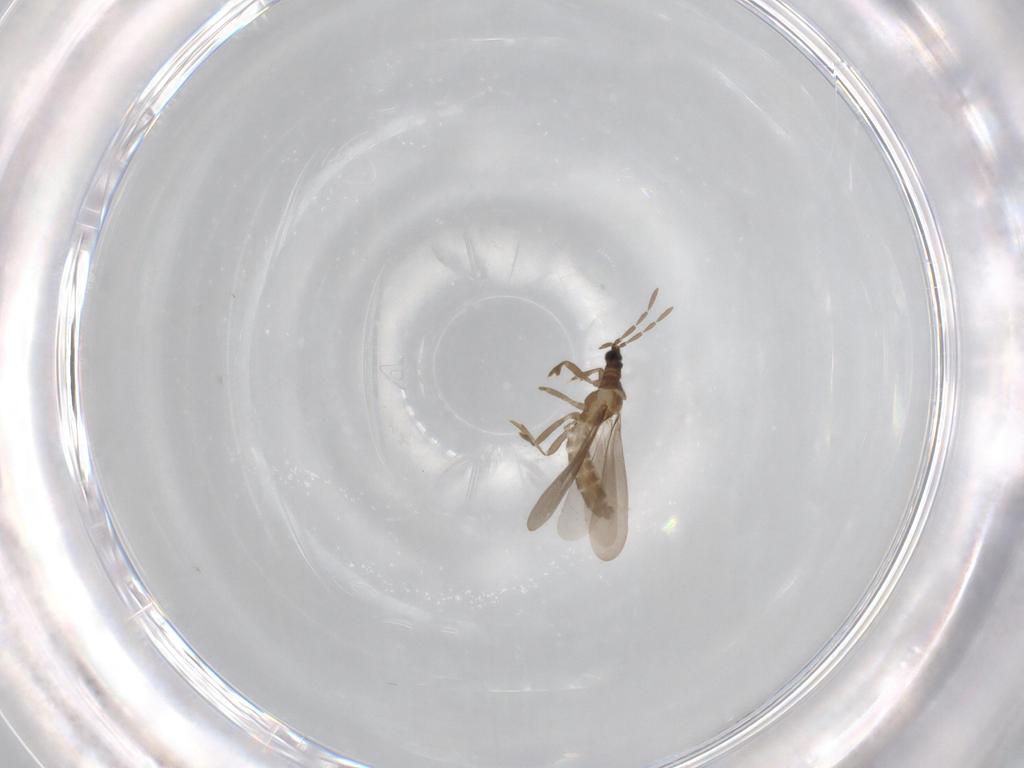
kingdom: Animalia
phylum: Arthropoda
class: Insecta
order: Hemiptera
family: Enicocephalidae
